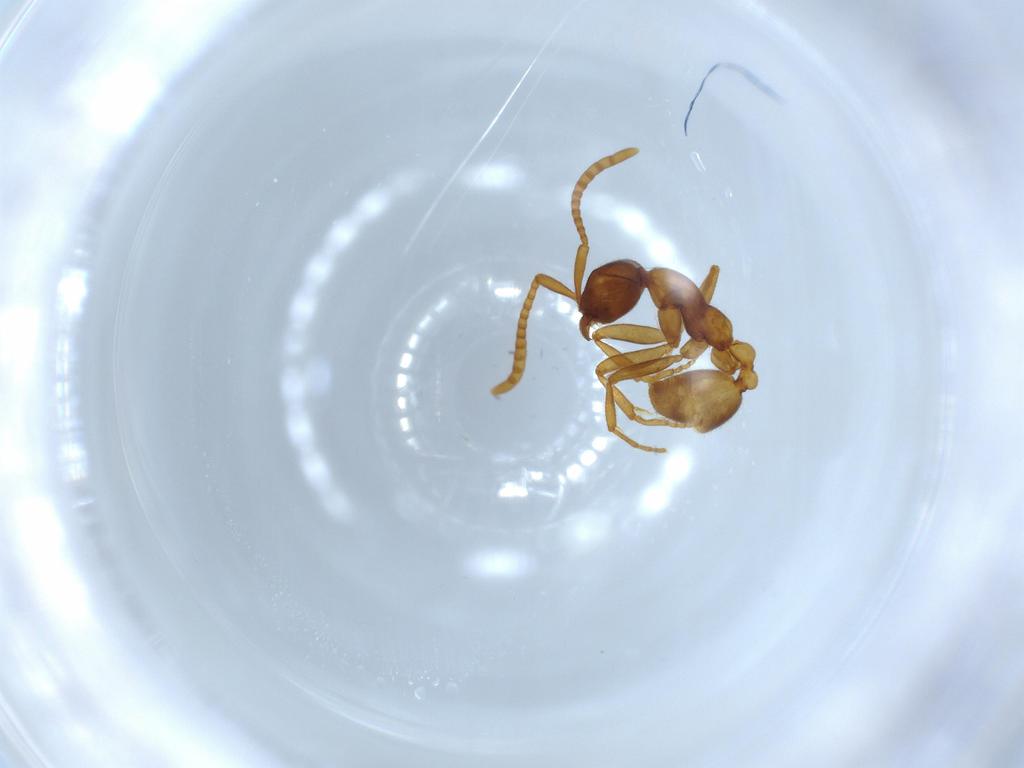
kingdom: Animalia
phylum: Arthropoda
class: Insecta
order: Hymenoptera
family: Formicidae
